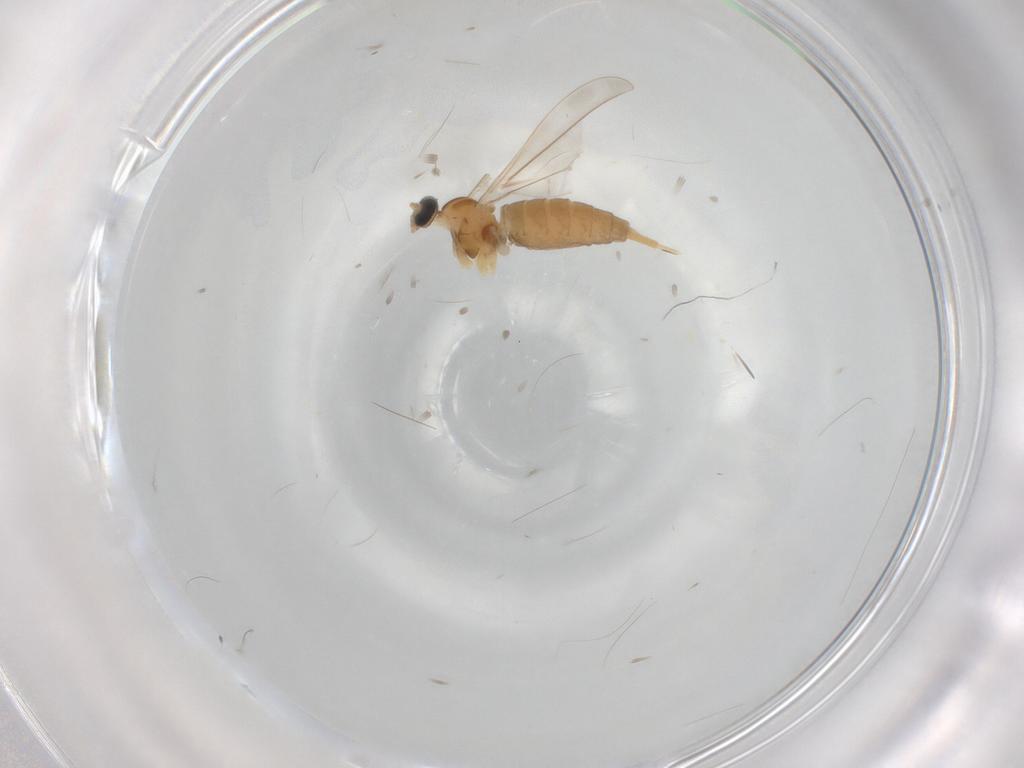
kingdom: Animalia
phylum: Arthropoda
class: Insecta
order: Diptera
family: Cecidomyiidae
